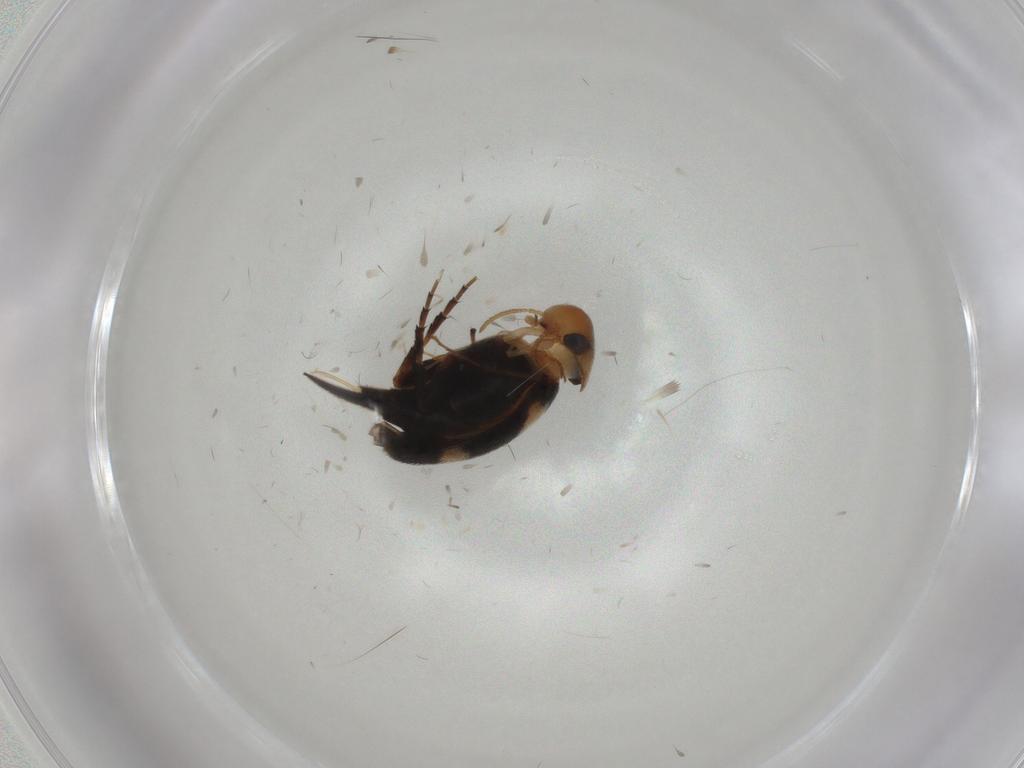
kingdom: Animalia
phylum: Arthropoda
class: Insecta
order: Coleoptera
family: Mordellidae
